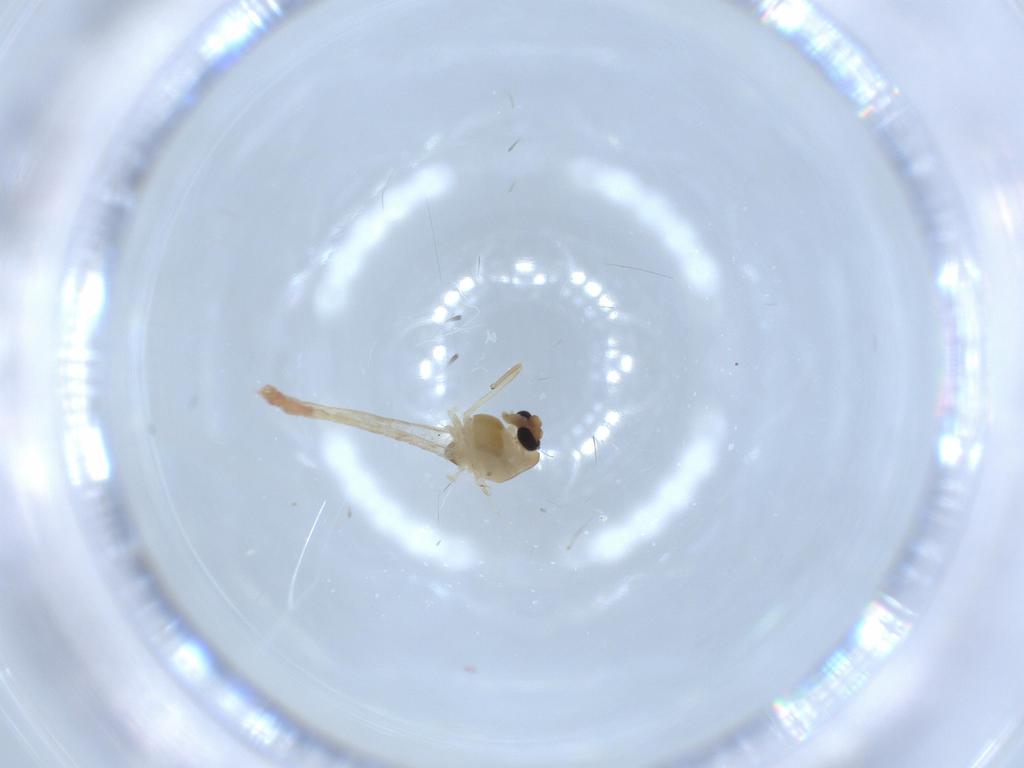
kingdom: Animalia
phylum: Arthropoda
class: Insecta
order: Diptera
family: Chironomidae
